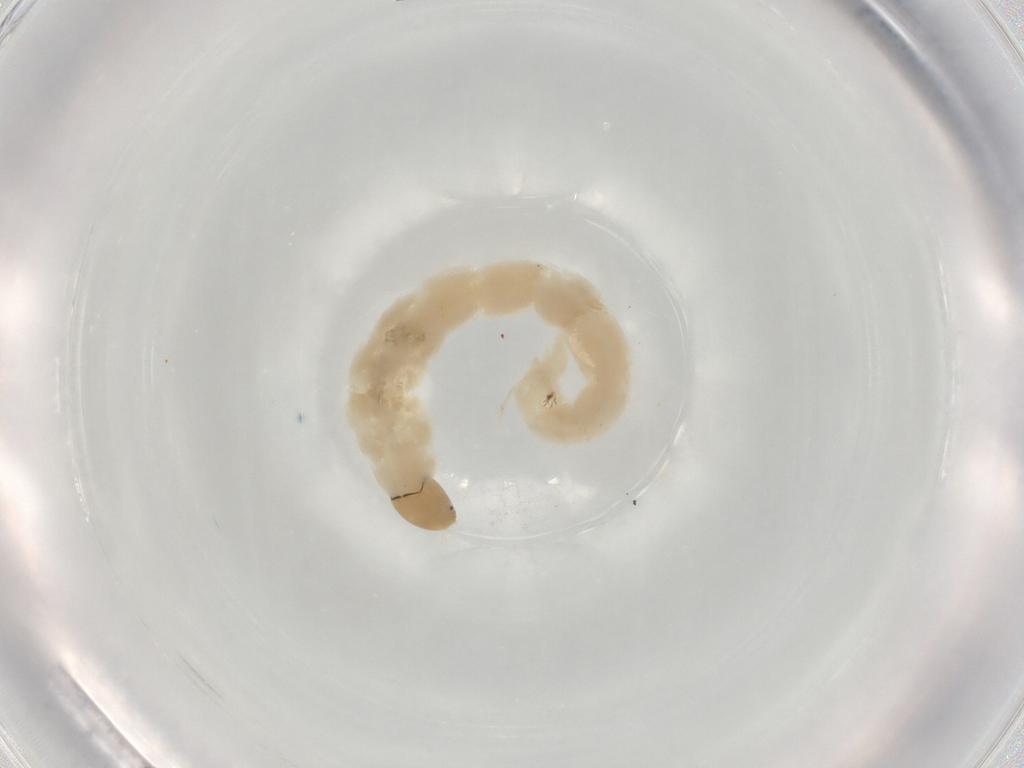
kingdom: Animalia
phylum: Arthropoda
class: Insecta
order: Diptera
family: Chironomidae
